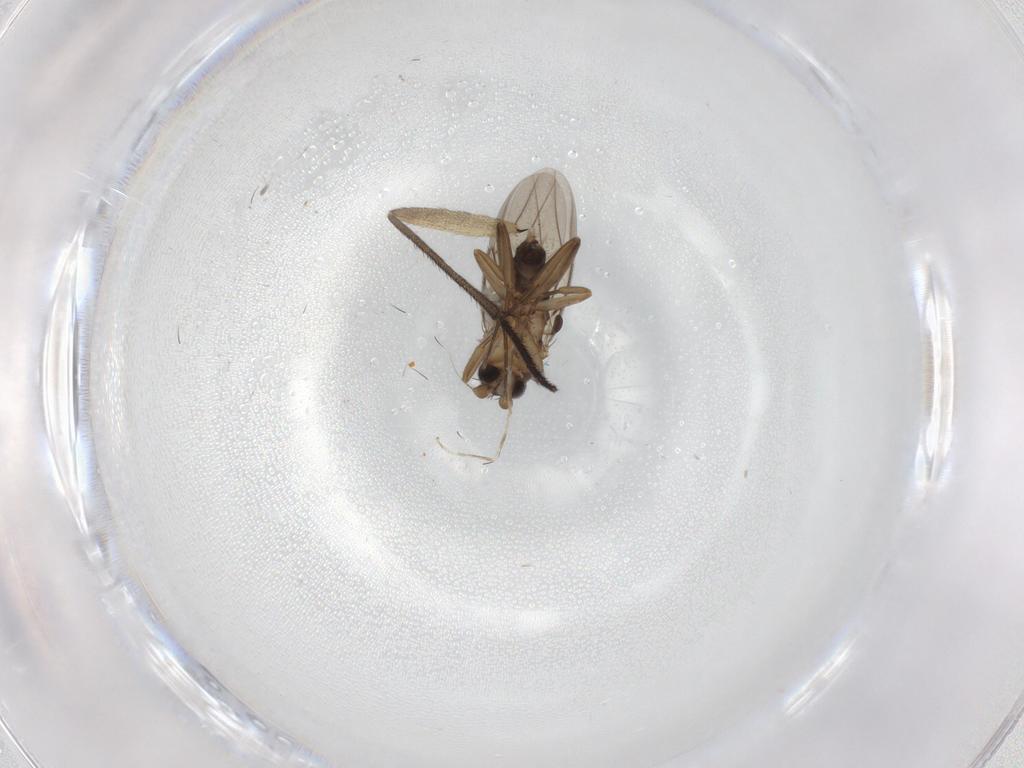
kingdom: Animalia
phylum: Arthropoda
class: Insecta
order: Diptera
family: Phoridae
